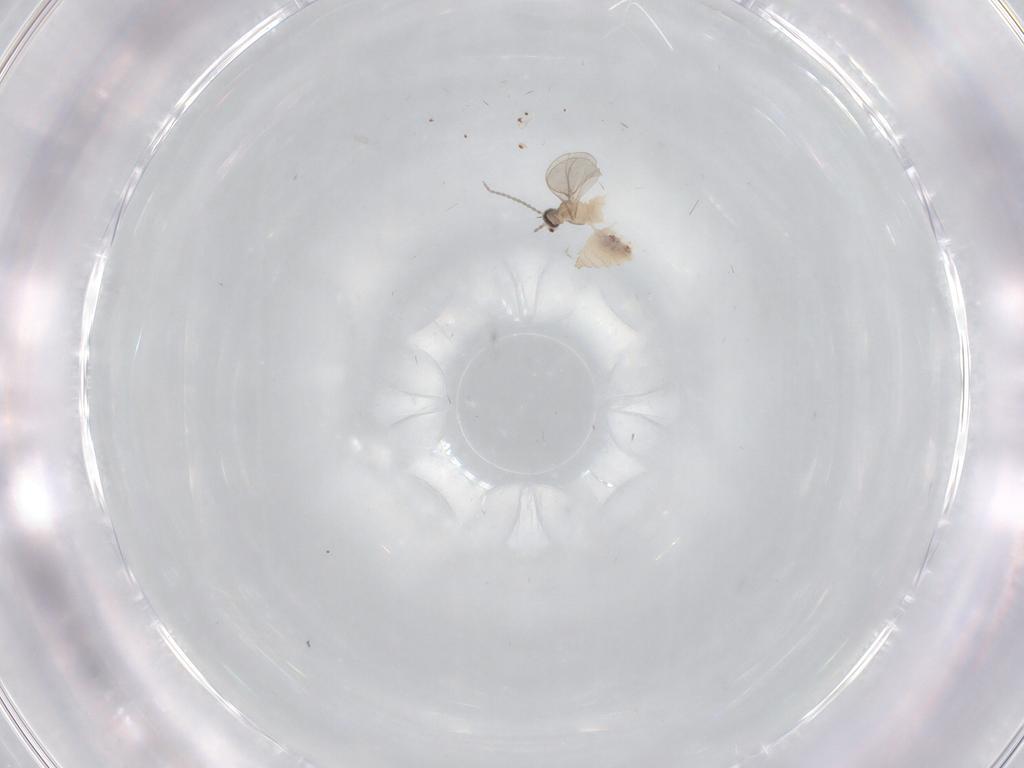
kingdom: Animalia
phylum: Arthropoda
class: Insecta
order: Diptera
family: Cecidomyiidae
